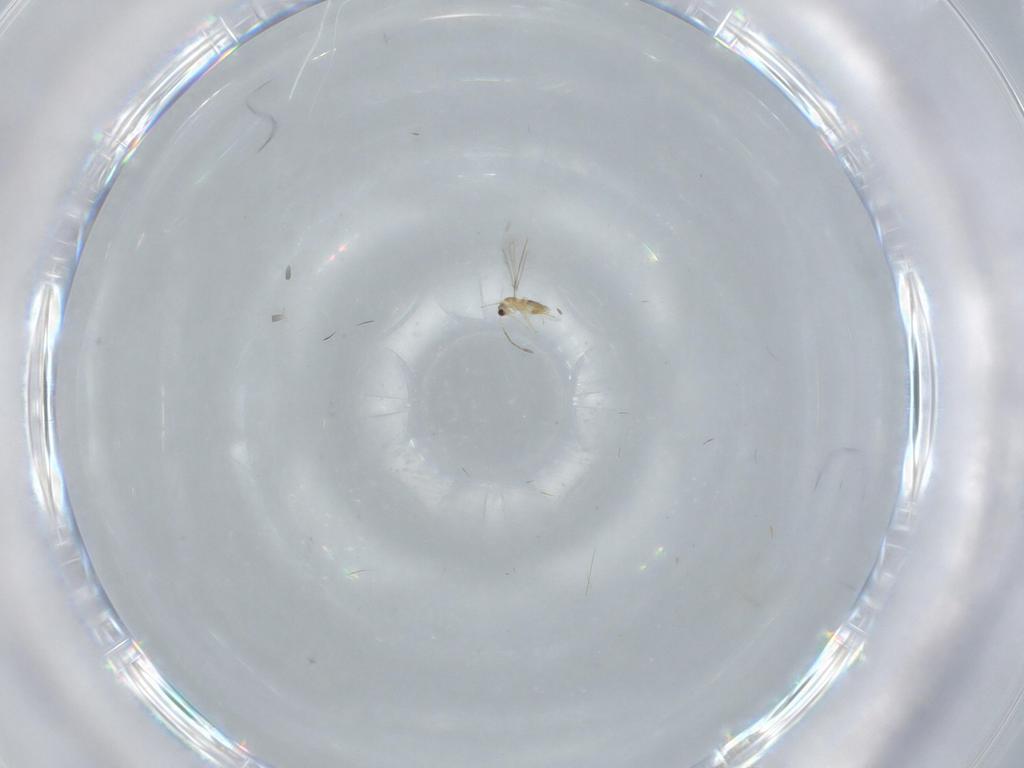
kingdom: Animalia
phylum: Arthropoda
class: Insecta
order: Hymenoptera
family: Mymaridae
